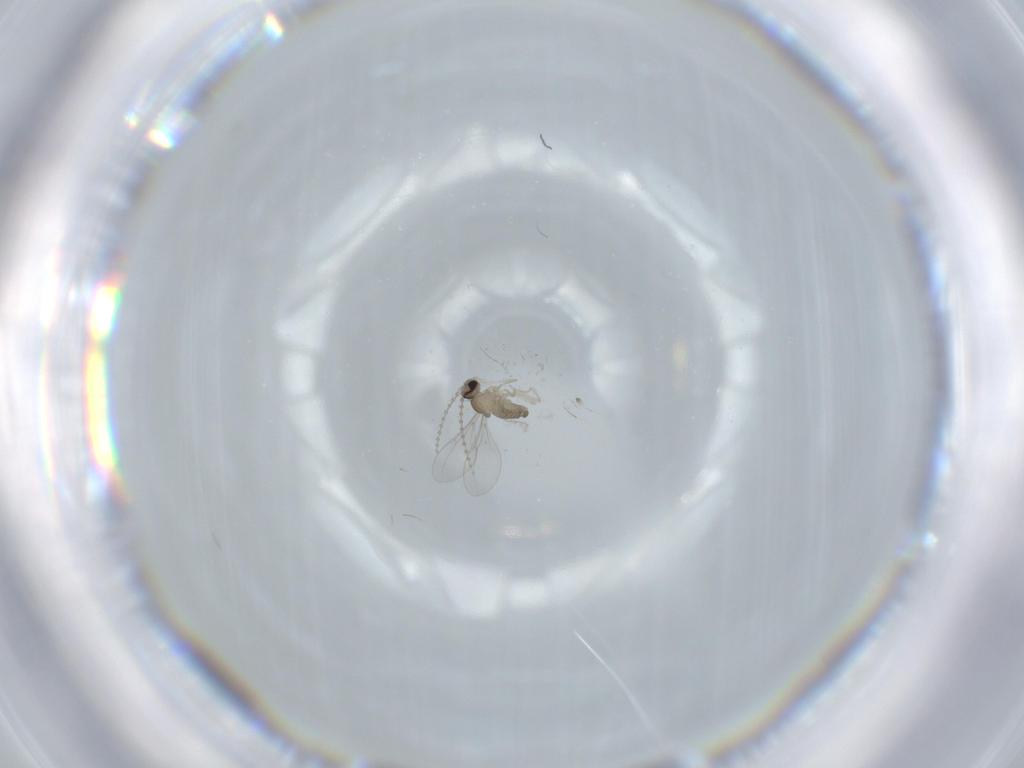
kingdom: Animalia
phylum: Arthropoda
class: Insecta
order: Diptera
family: Cecidomyiidae
